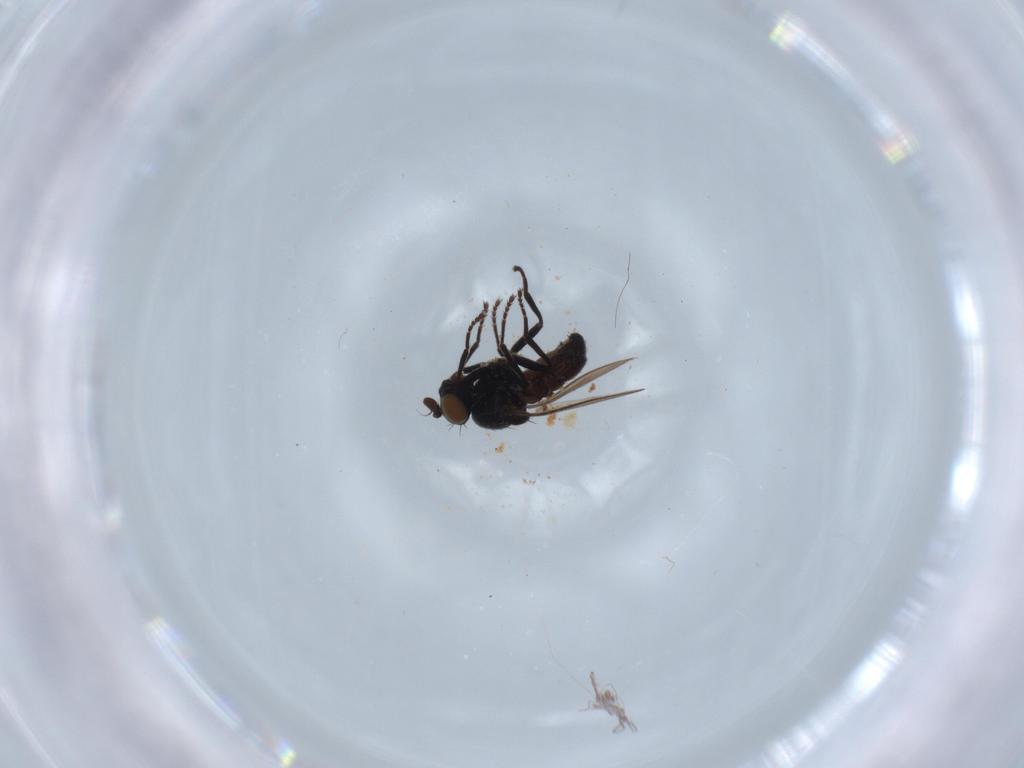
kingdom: Animalia
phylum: Arthropoda
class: Insecta
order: Diptera
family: Ephydridae
